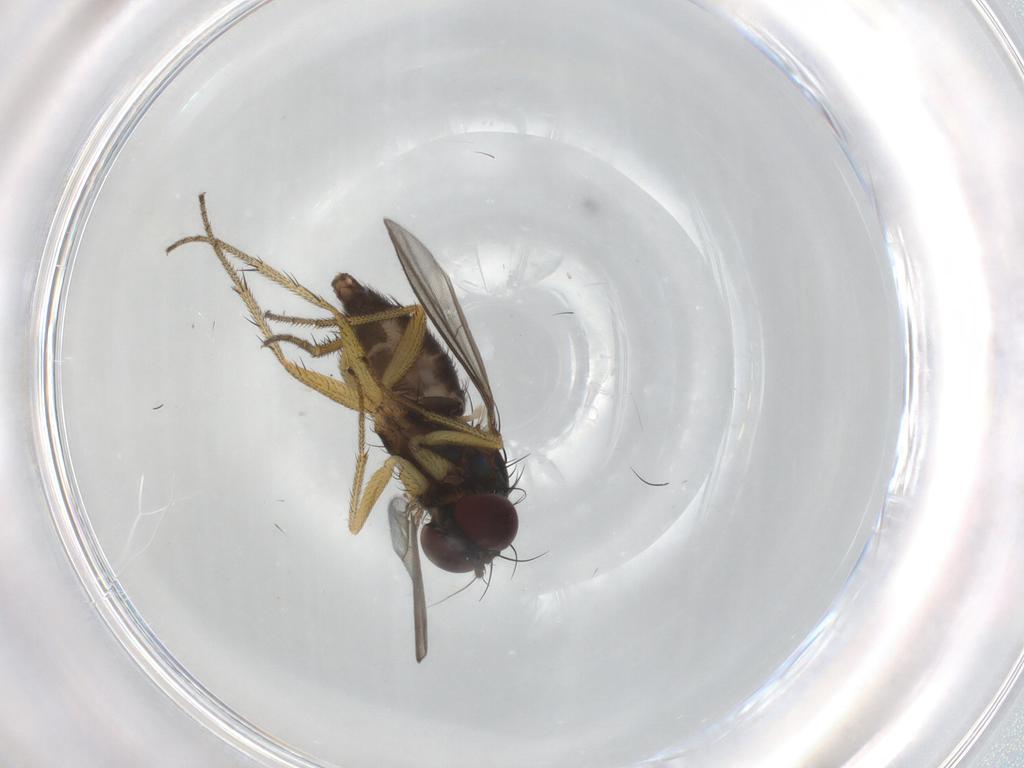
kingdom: Animalia
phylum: Arthropoda
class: Insecta
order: Diptera
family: Dolichopodidae
